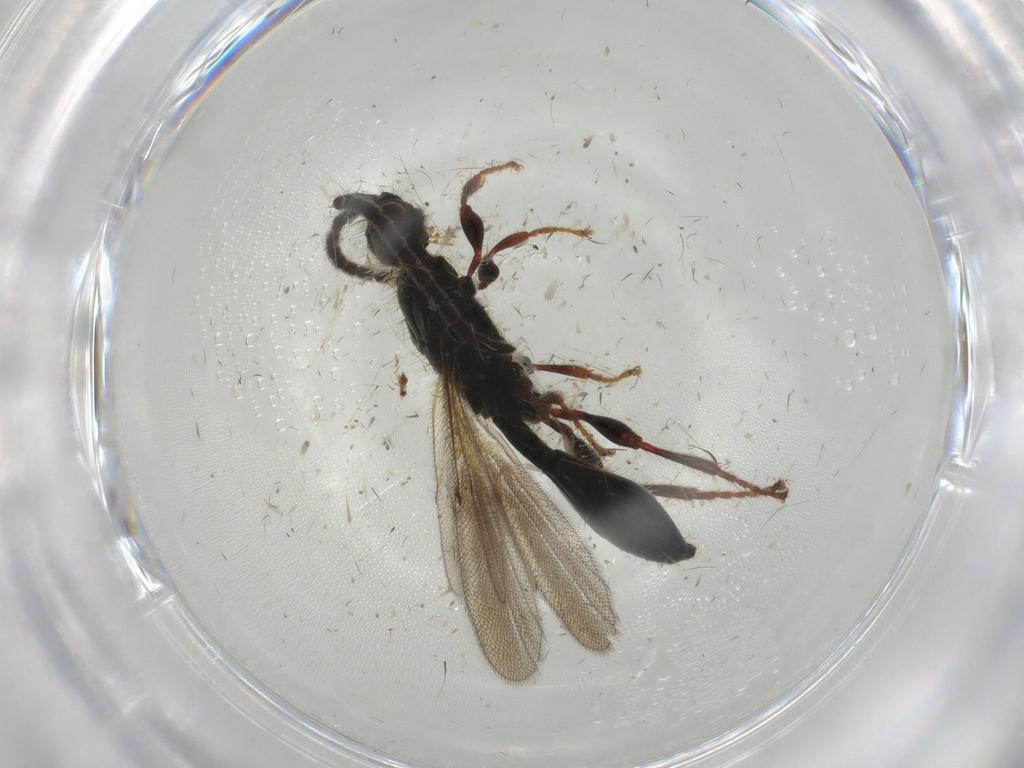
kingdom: Animalia
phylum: Arthropoda
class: Insecta
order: Hymenoptera
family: Diapriidae
